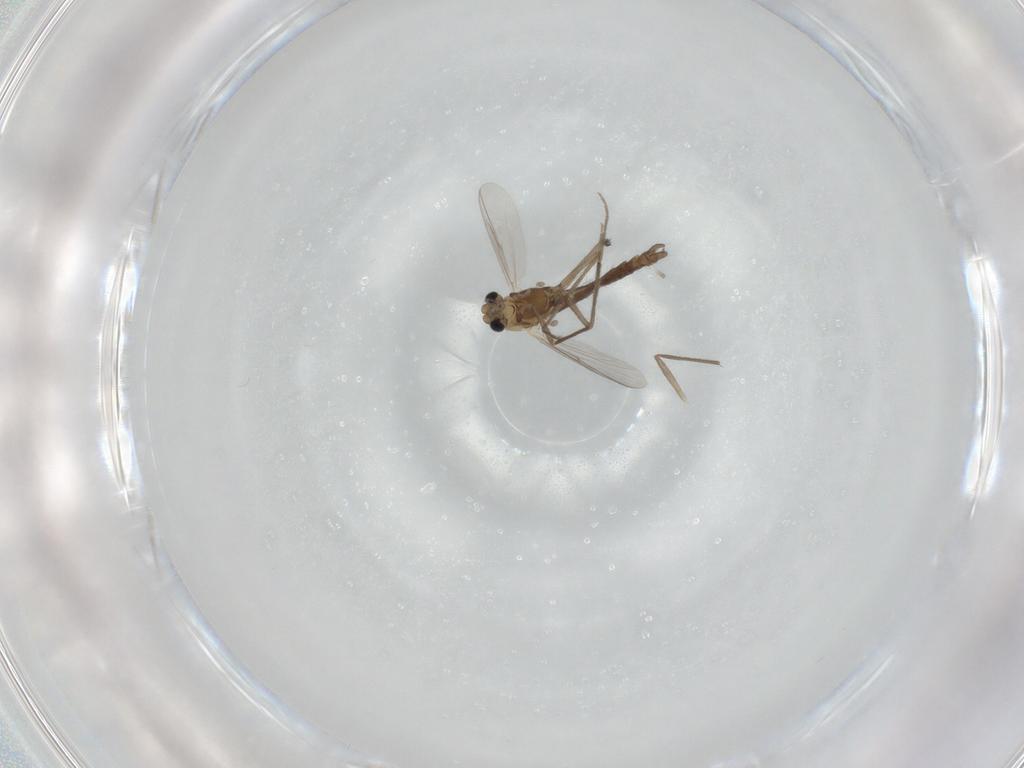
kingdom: Animalia
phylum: Arthropoda
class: Insecta
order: Diptera
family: Chironomidae
